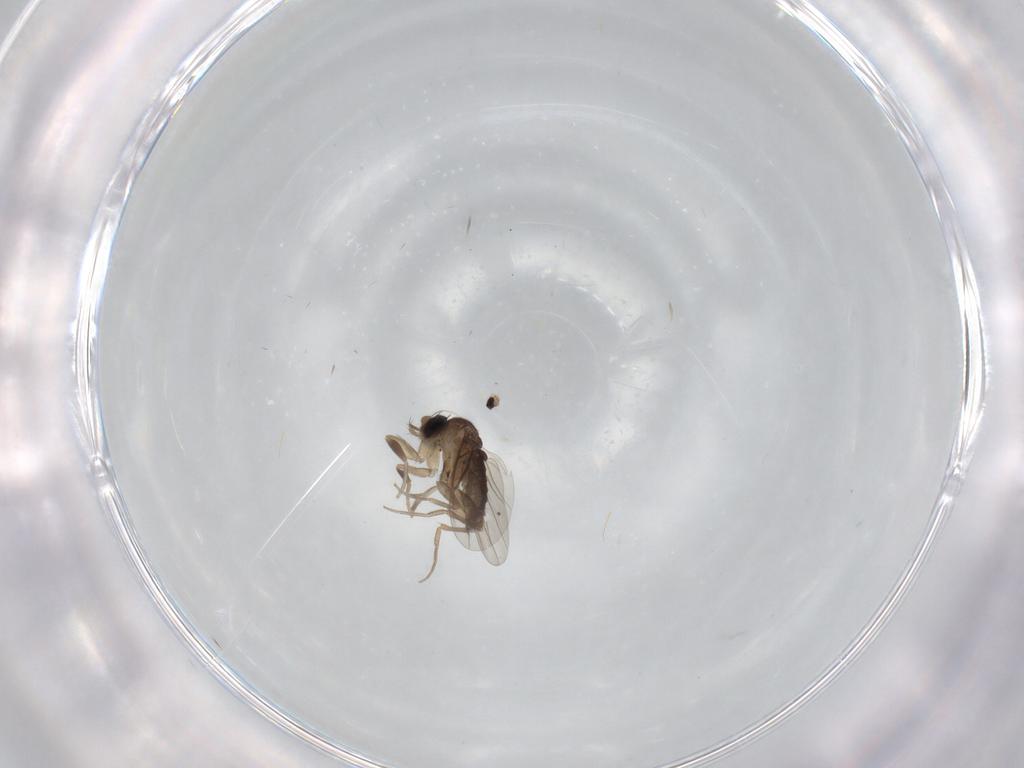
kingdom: Animalia
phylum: Arthropoda
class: Insecta
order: Diptera
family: Phoridae
